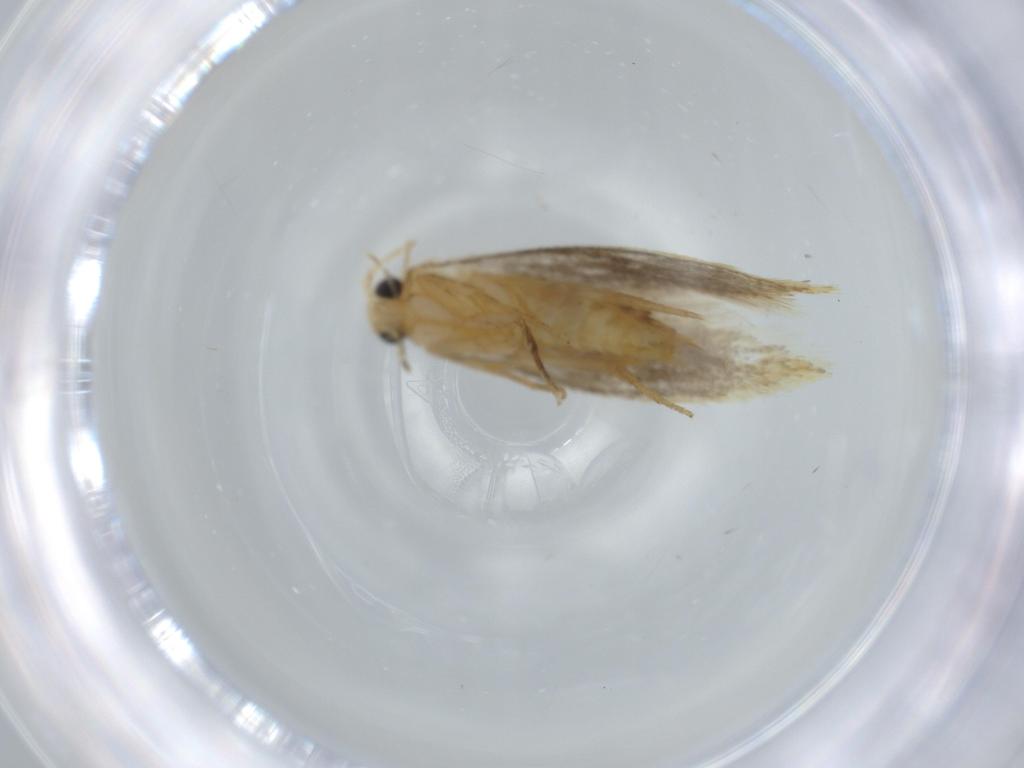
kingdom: Animalia
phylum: Arthropoda
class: Insecta
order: Lepidoptera
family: Tineidae
